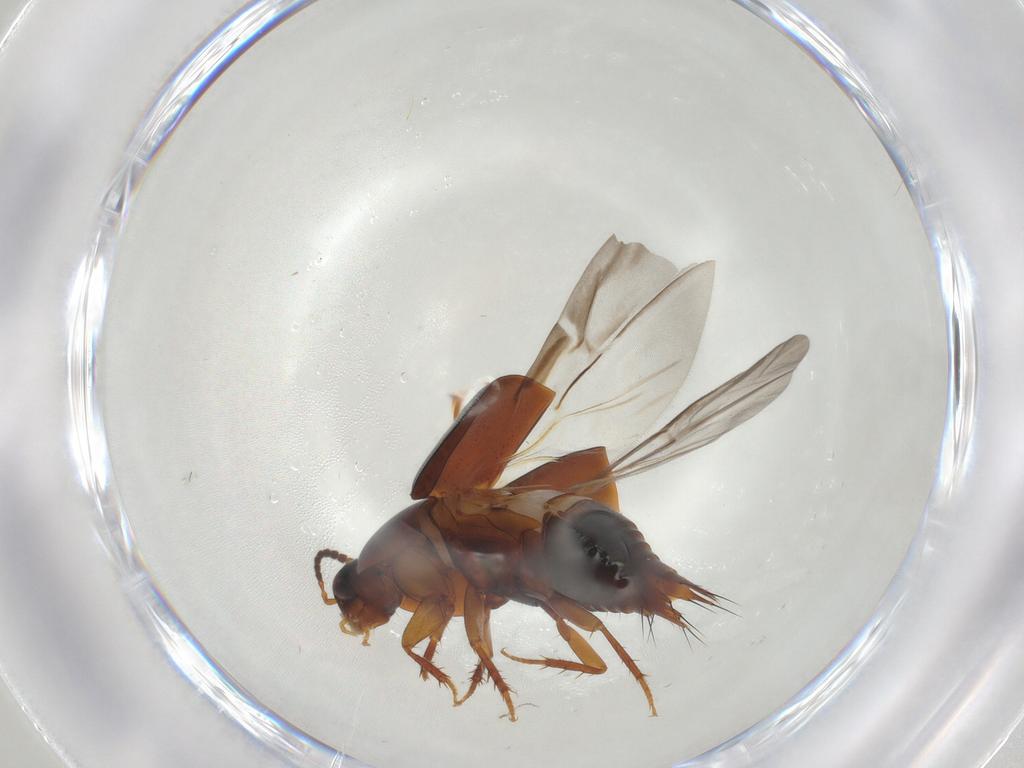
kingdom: Animalia
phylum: Arthropoda
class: Insecta
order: Coleoptera
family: Staphylinidae
